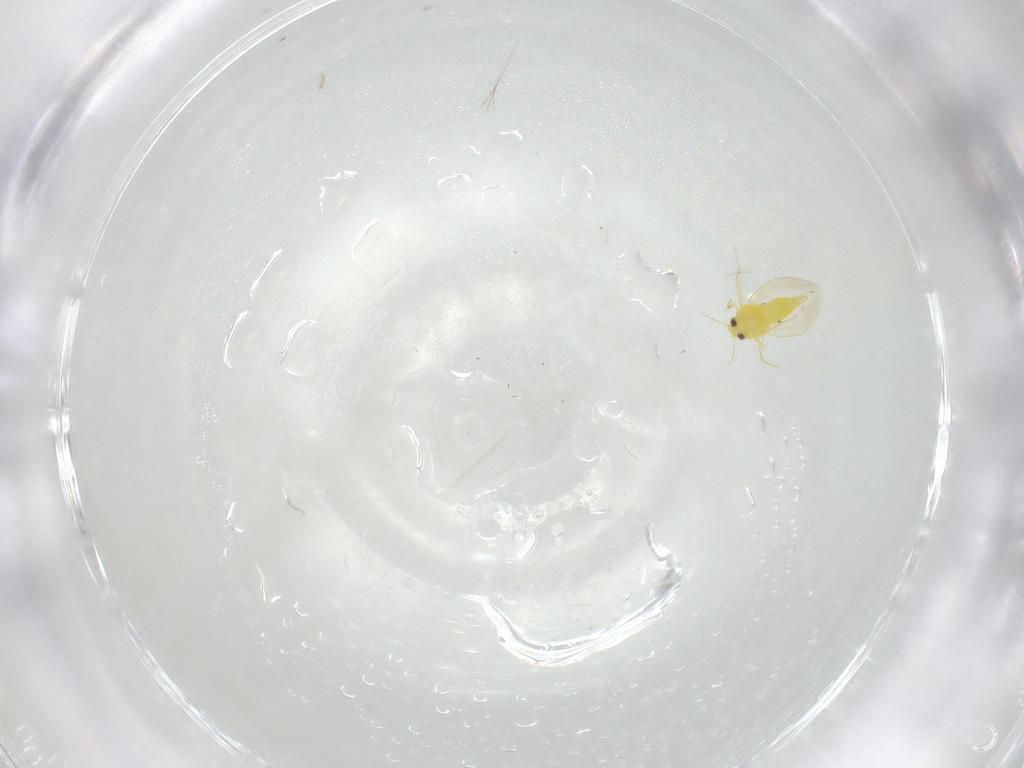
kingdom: Animalia
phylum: Arthropoda
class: Insecta
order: Hemiptera
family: Aleyrodidae
